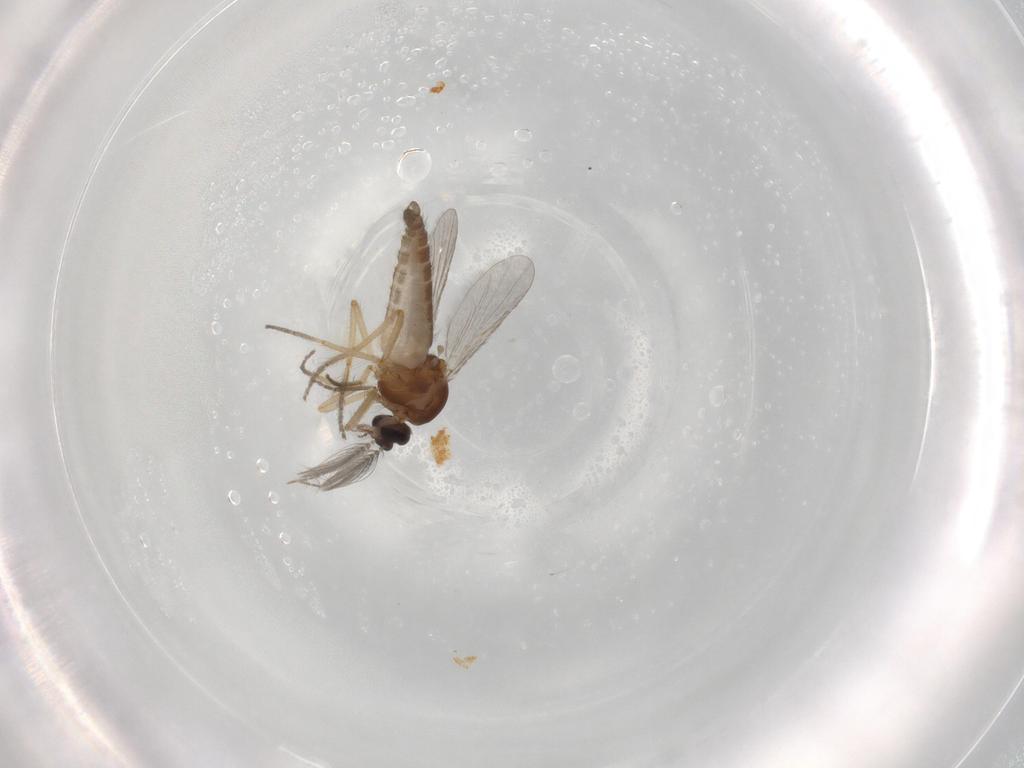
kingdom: Animalia
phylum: Arthropoda
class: Insecta
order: Diptera
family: Ceratopogonidae
